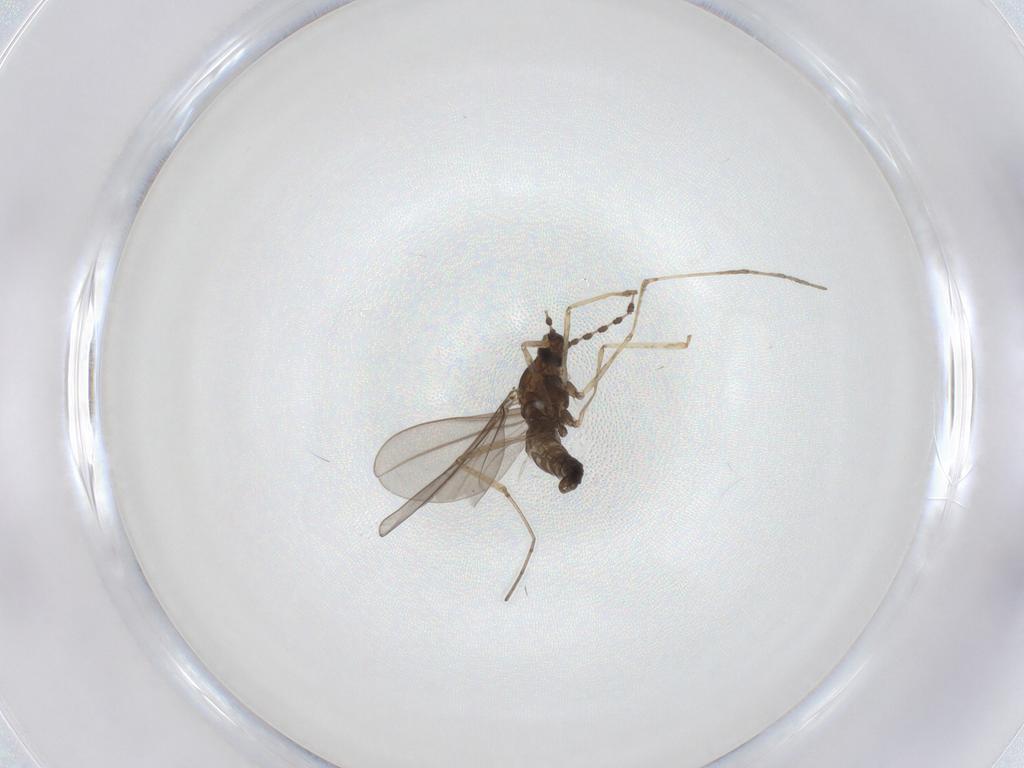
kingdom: Animalia
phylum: Arthropoda
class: Insecta
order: Diptera
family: Cecidomyiidae
